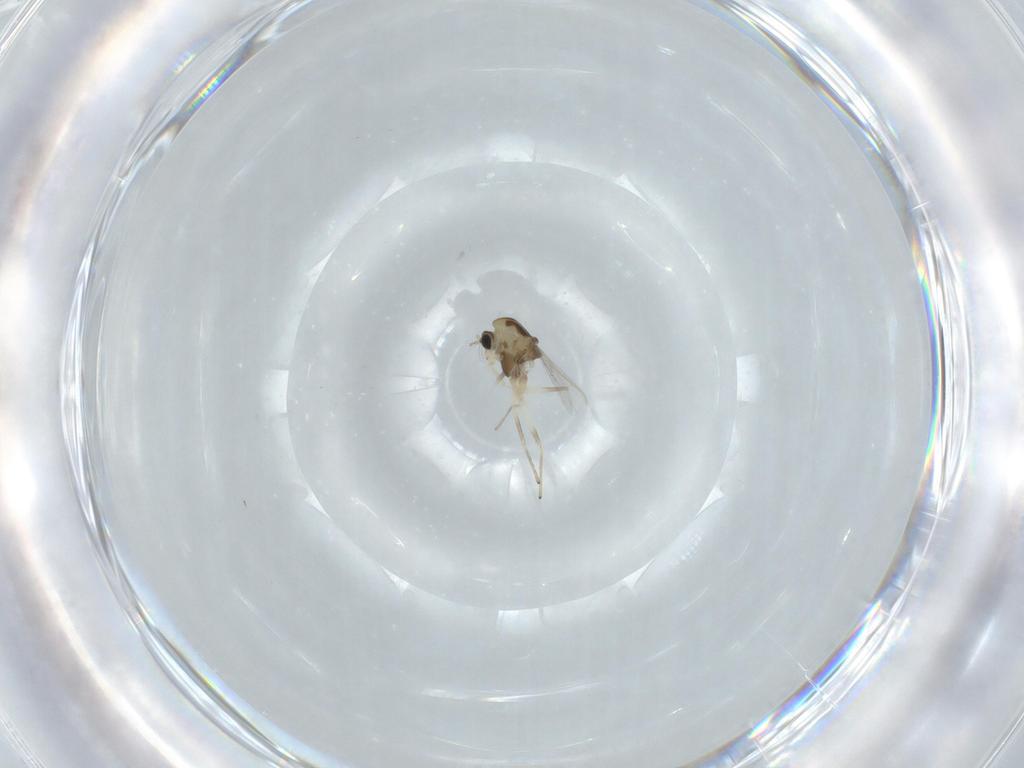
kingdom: Animalia
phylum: Arthropoda
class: Insecta
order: Diptera
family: Chironomidae
